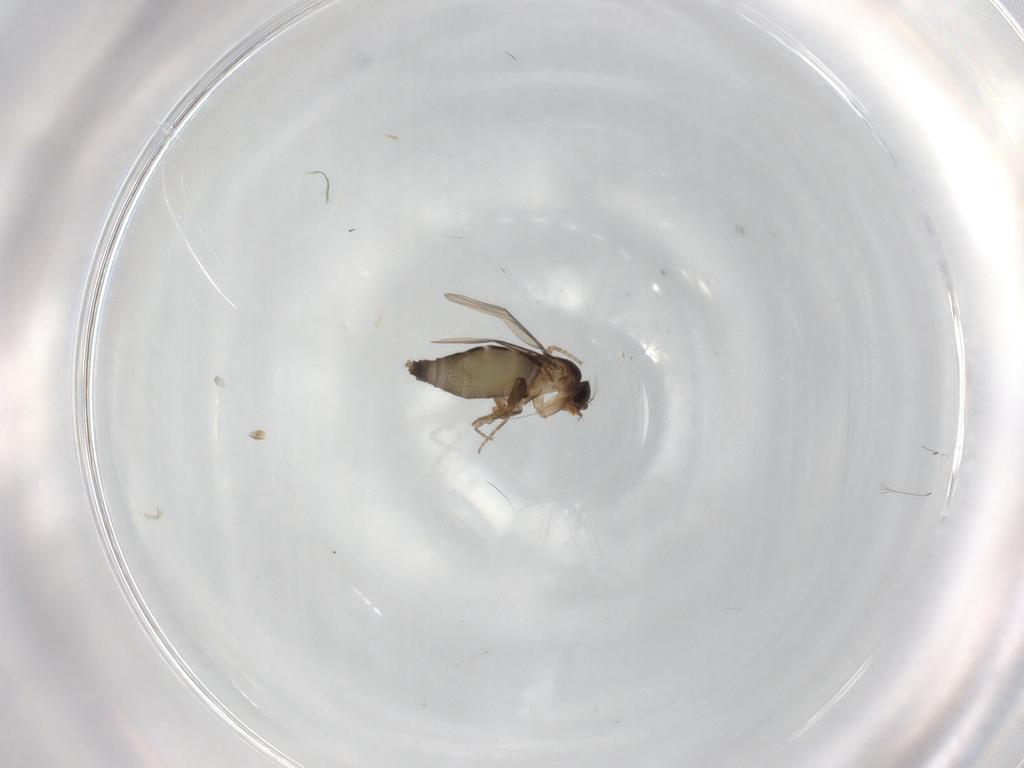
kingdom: Animalia
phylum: Arthropoda
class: Insecta
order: Diptera
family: Phoridae
